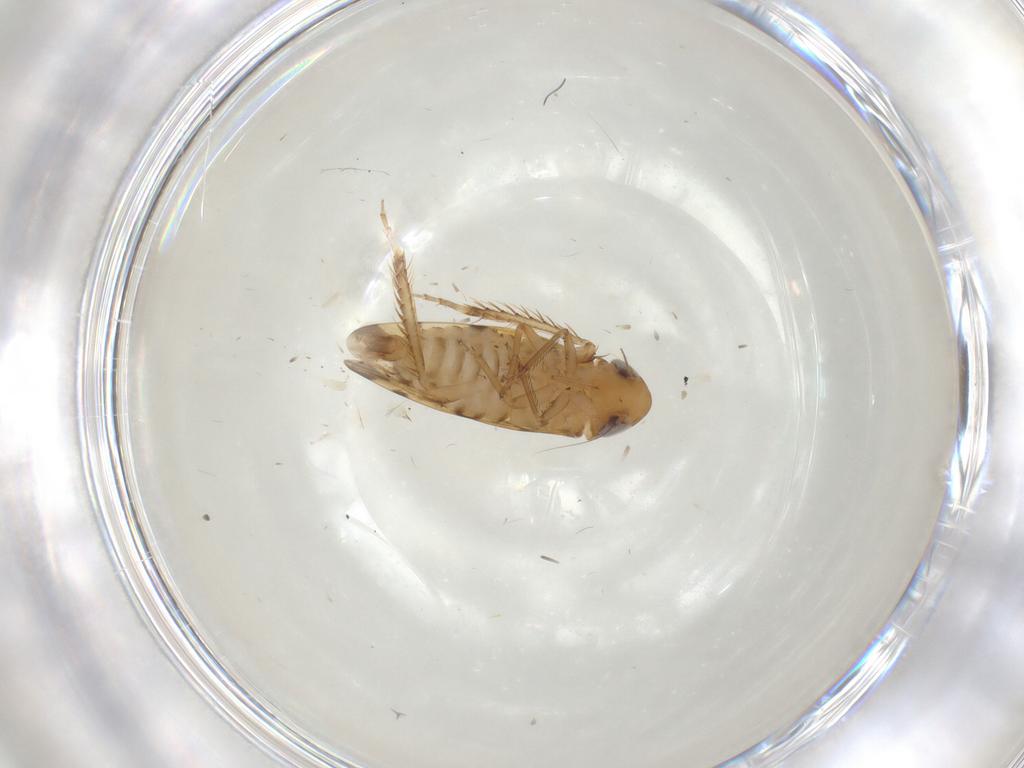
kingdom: Animalia
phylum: Arthropoda
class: Insecta
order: Hemiptera
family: Cicadellidae
